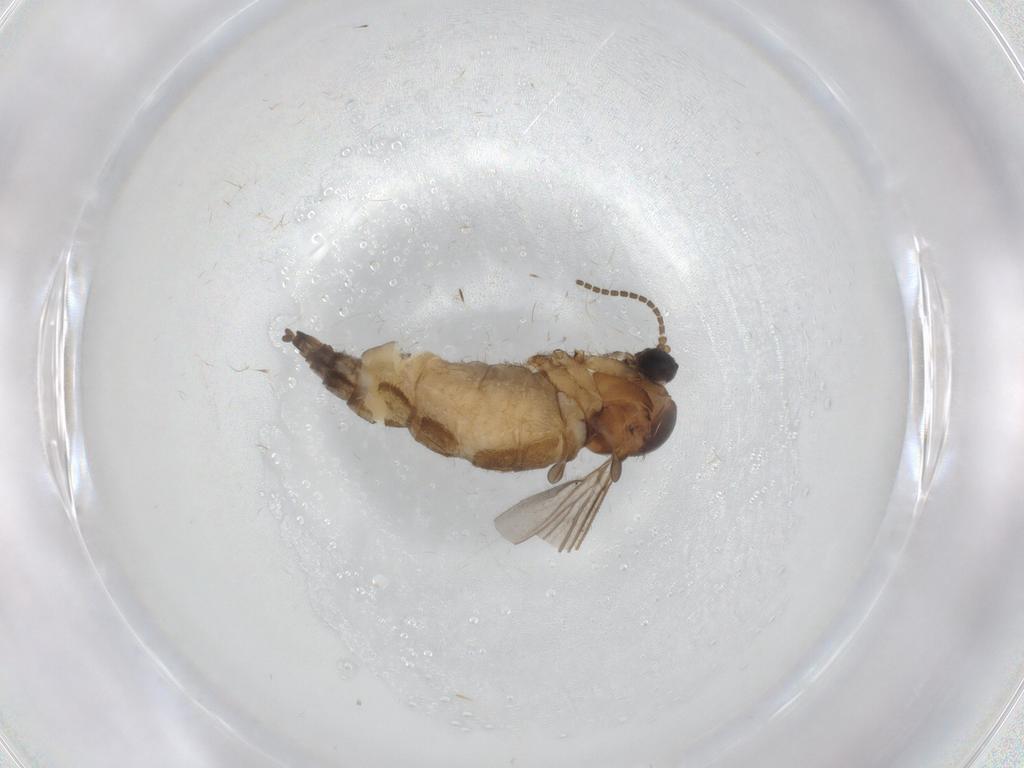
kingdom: Animalia
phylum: Arthropoda
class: Insecta
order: Diptera
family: Sciaridae
